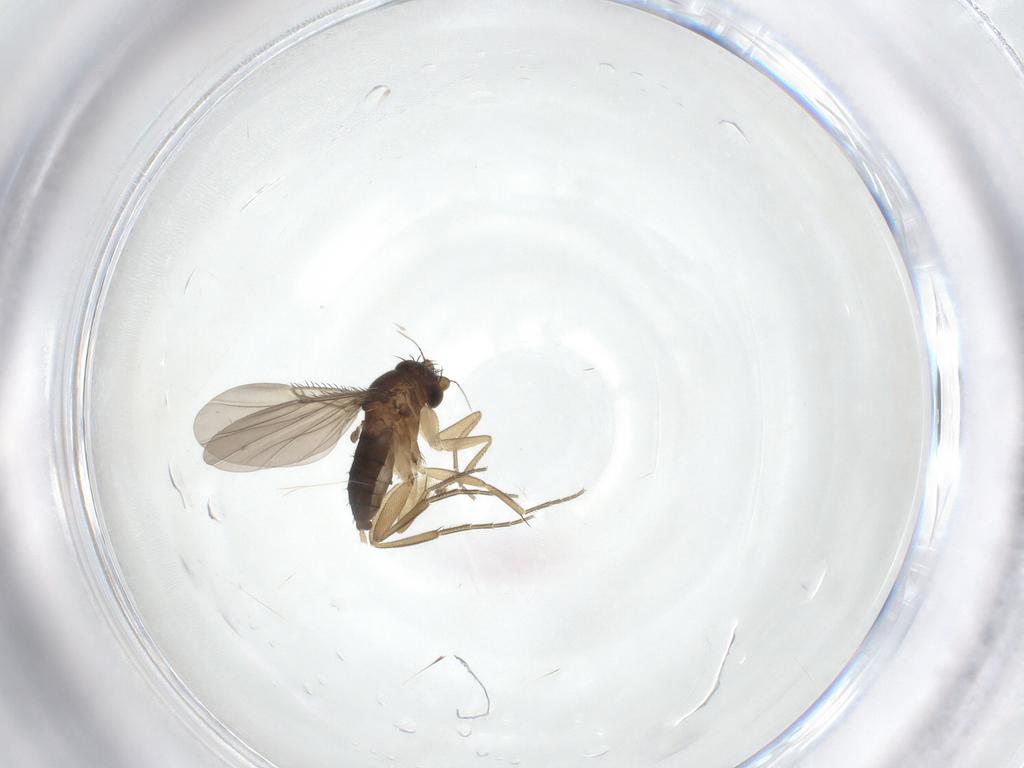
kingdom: Animalia
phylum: Arthropoda
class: Insecta
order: Diptera
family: Phoridae
